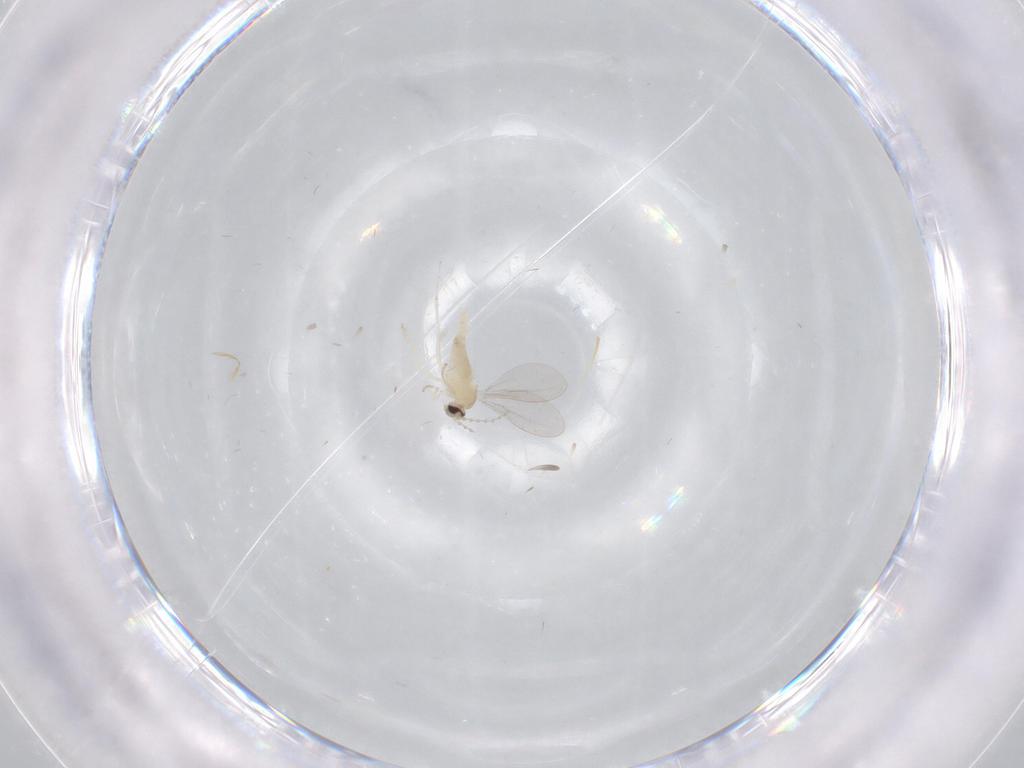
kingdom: Animalia
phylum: Arthropoda
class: Insecta
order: Diptera
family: Cecidomyiidae
